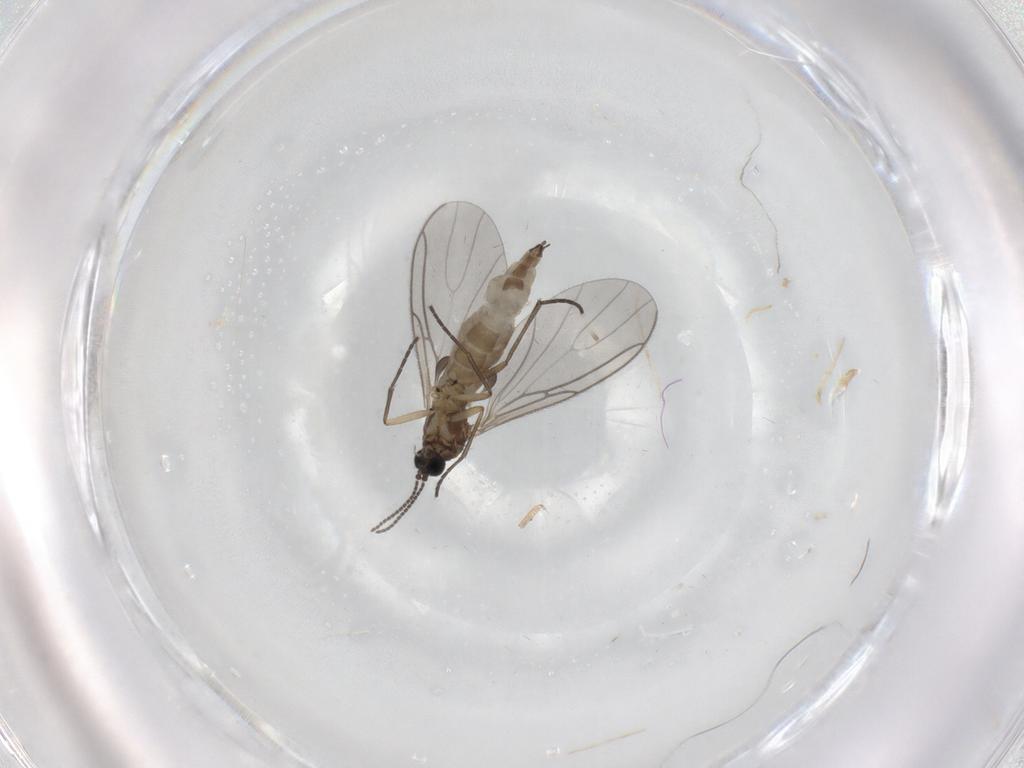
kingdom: Animalia
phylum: Arthropoda
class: Insecta
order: Diptera
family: Sciaridae
